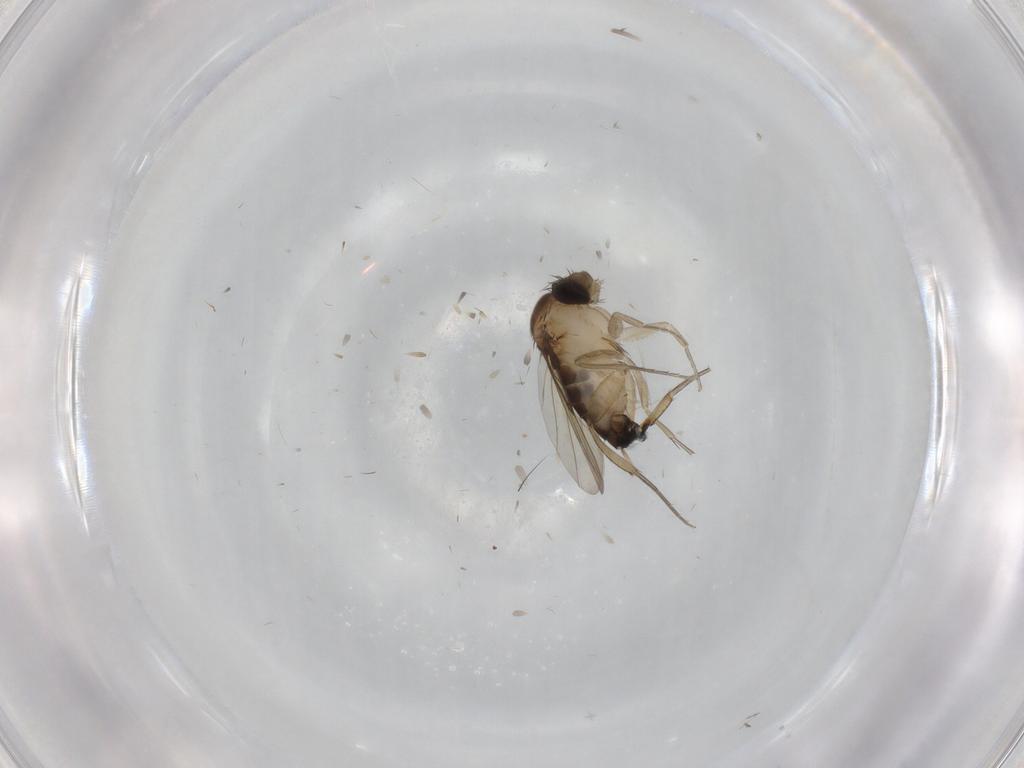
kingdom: Animalia
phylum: Arthropoda
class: Insecta
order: Diptera
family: Phoridae
